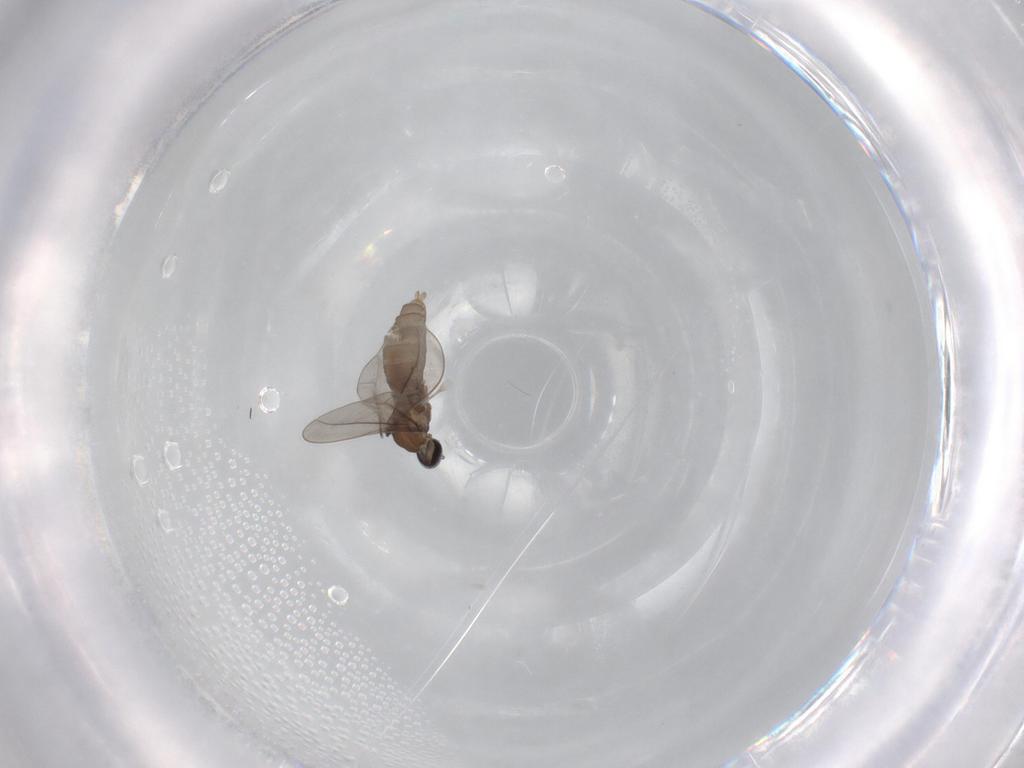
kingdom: Animalia
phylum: Arthropoda
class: Insecta
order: Diptera
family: Cecidomyiidae
